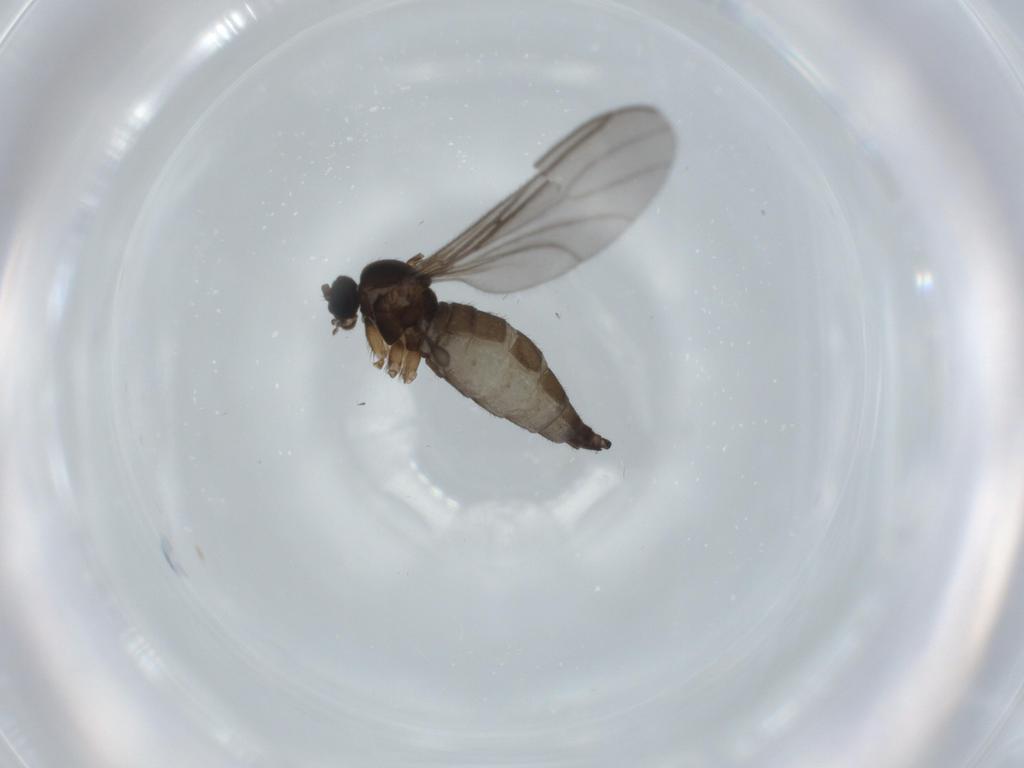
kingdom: Animalia
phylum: Arthropoda
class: Insecta
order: Diptera
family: Sciaridae
